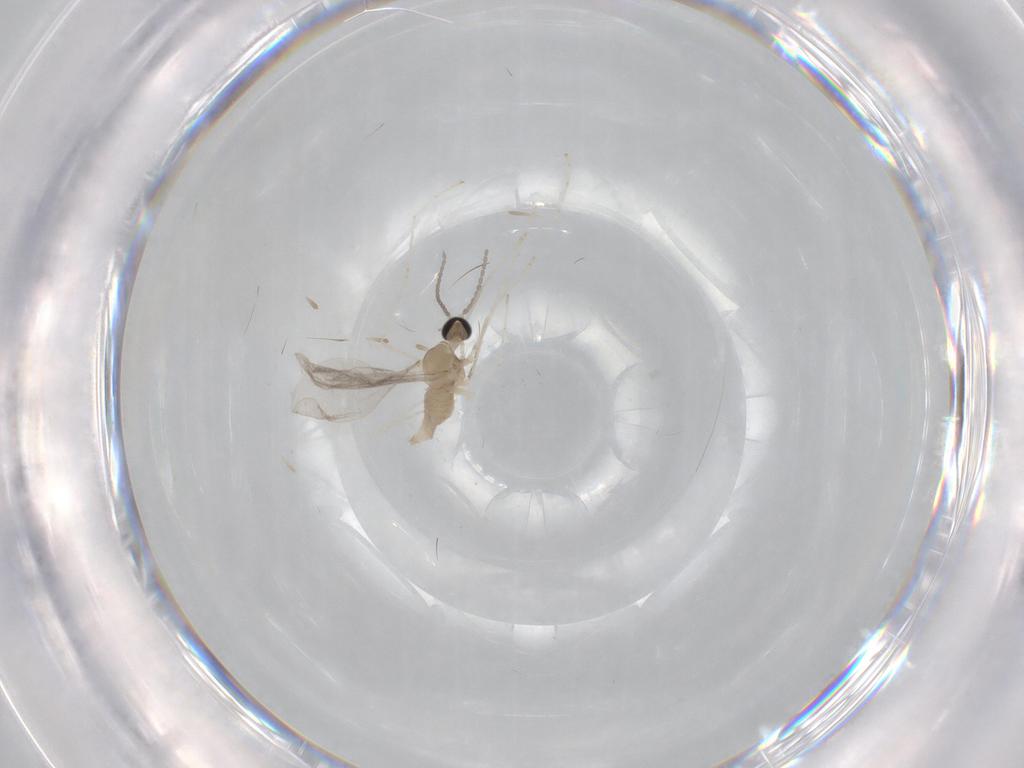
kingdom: Animalia
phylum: Arthropoda
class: Insecta
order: Diptera
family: Cecidomyiidae
